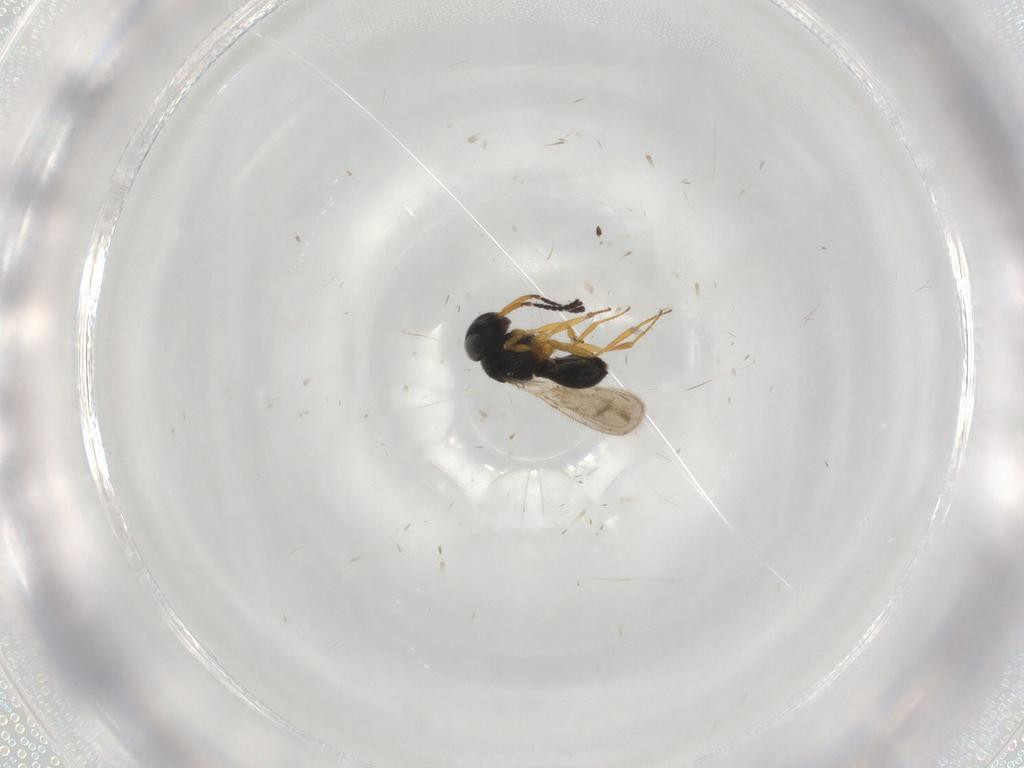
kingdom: Animalia
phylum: Arthropoda
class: Insecta
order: Hymenoptera
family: Scelionidae
